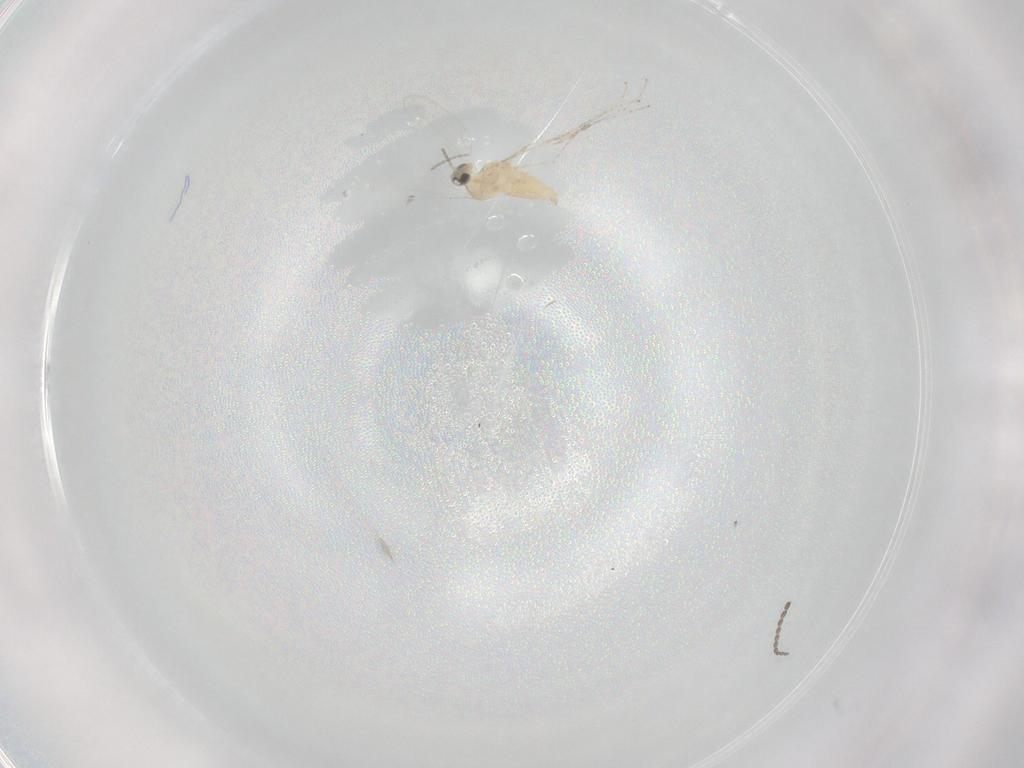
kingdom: Animalia
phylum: Arthropoda
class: Insecta
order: Diptera
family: Cecidomyiidae
